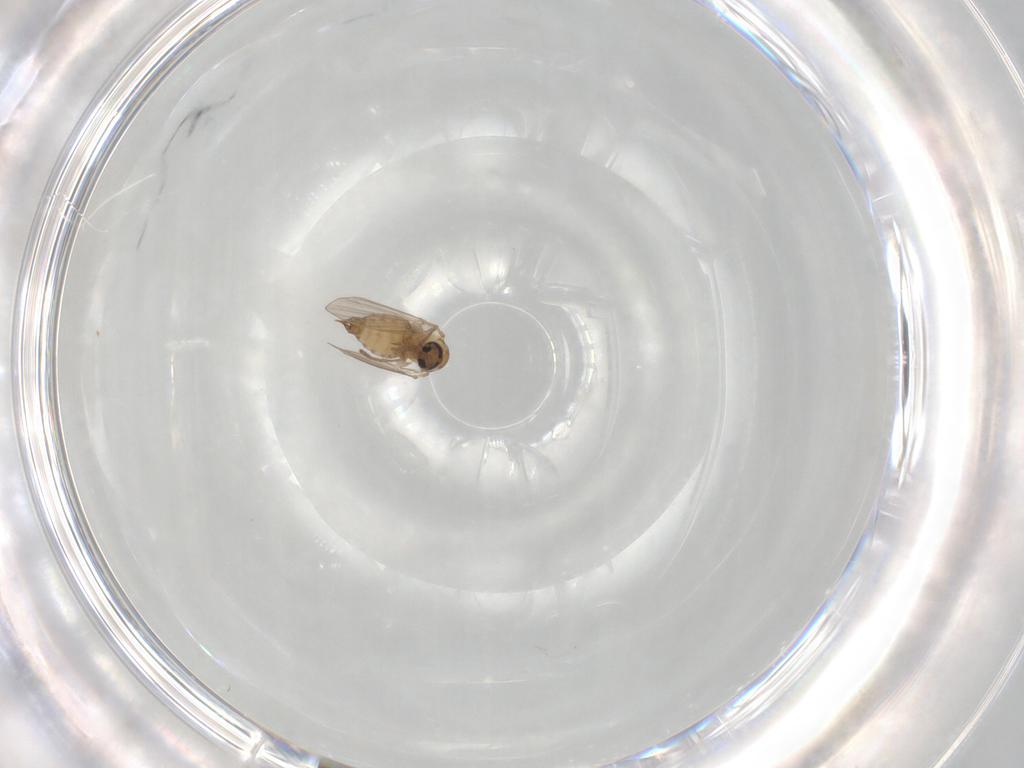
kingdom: Animalia
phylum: Arthropoda
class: Insecta
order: Diptera
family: Psychodidae
